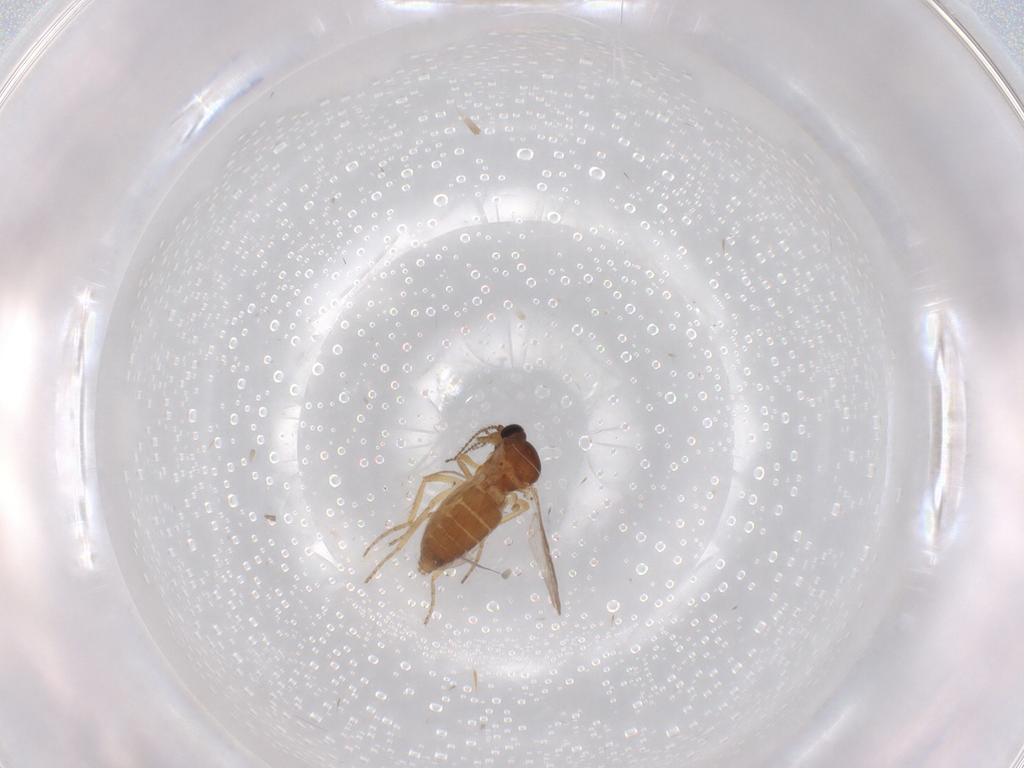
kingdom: Animalia
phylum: Arthropoda
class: Insecta
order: Diptera
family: Ceratopogonidae
